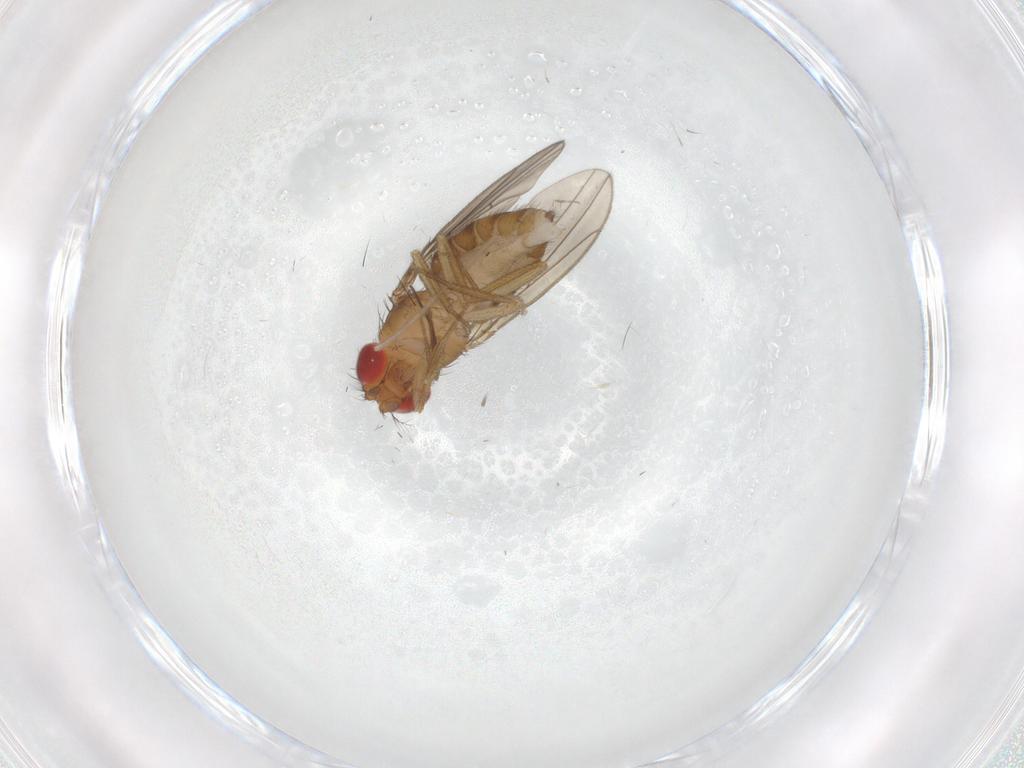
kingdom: Animalia
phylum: Arthropoda
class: Insecta
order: Diptera
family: Drosophilidae
